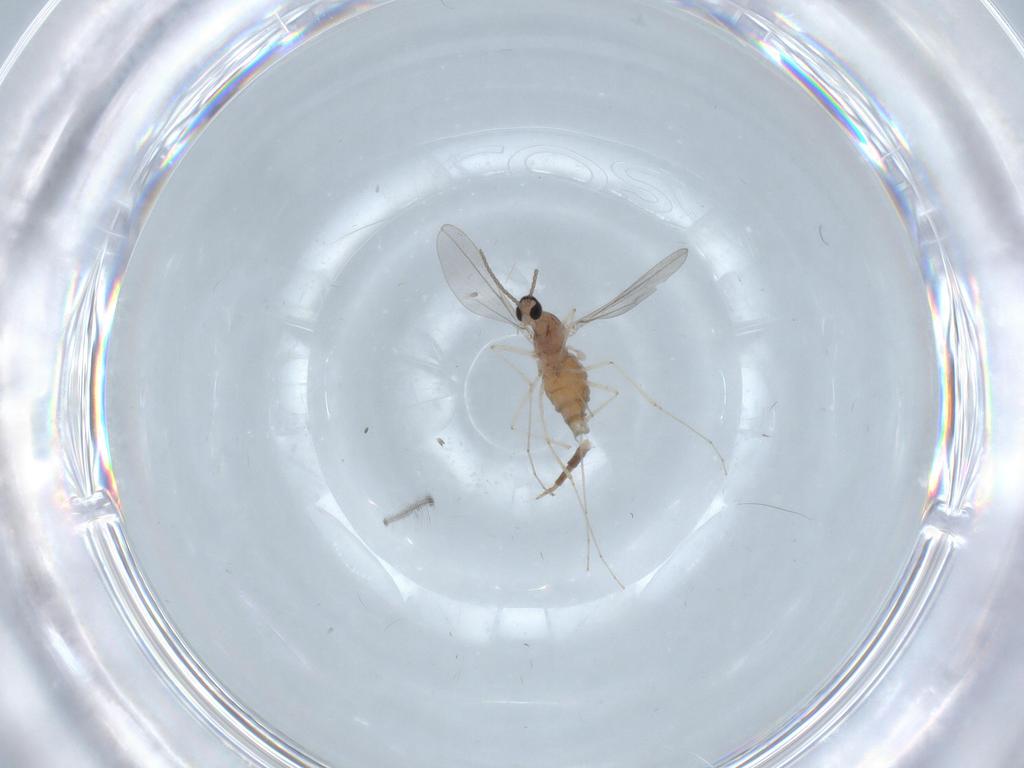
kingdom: Animalia
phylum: Arthropoda
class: Insecta
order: Diptera
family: Cecidomyiidae
